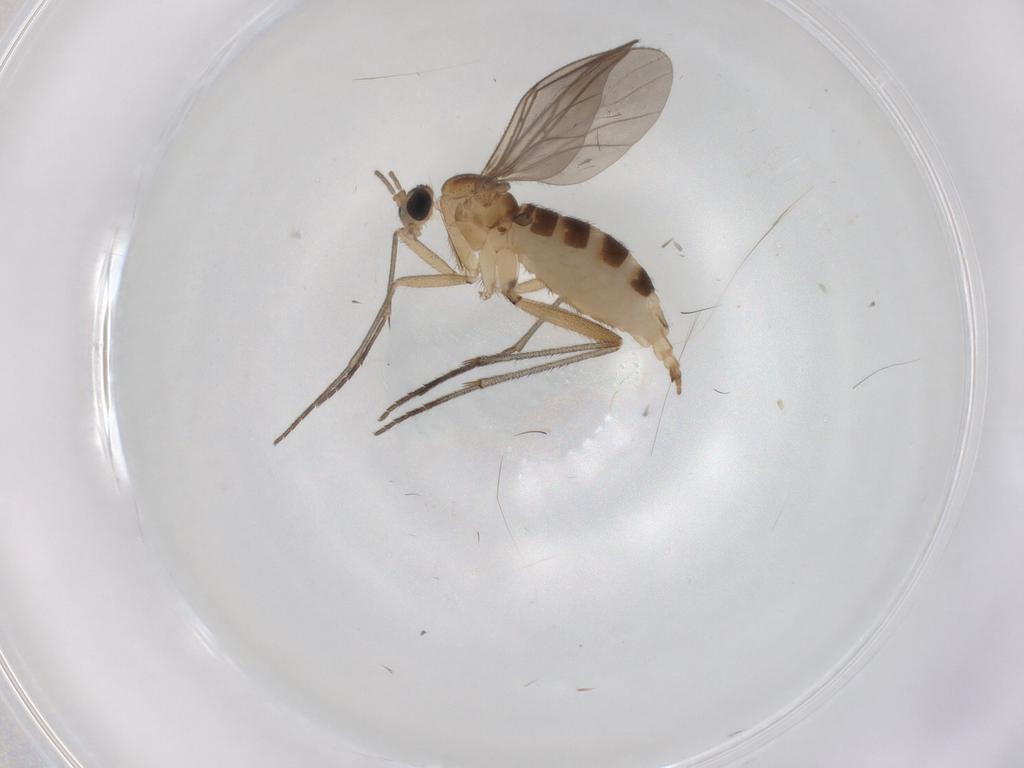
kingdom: Animalia
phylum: Arthropoda
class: Insecta
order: Diptera
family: Sciaridae
